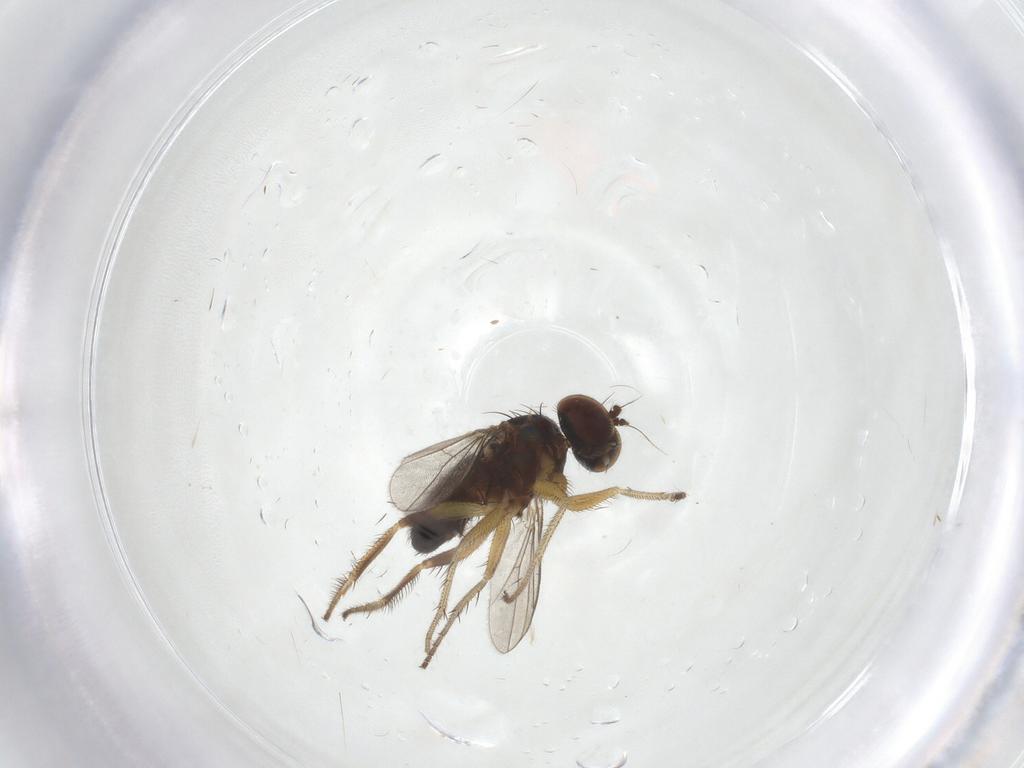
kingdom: Animalia
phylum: Arthropoda
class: Insecta
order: Diptera
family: Psychodidae
